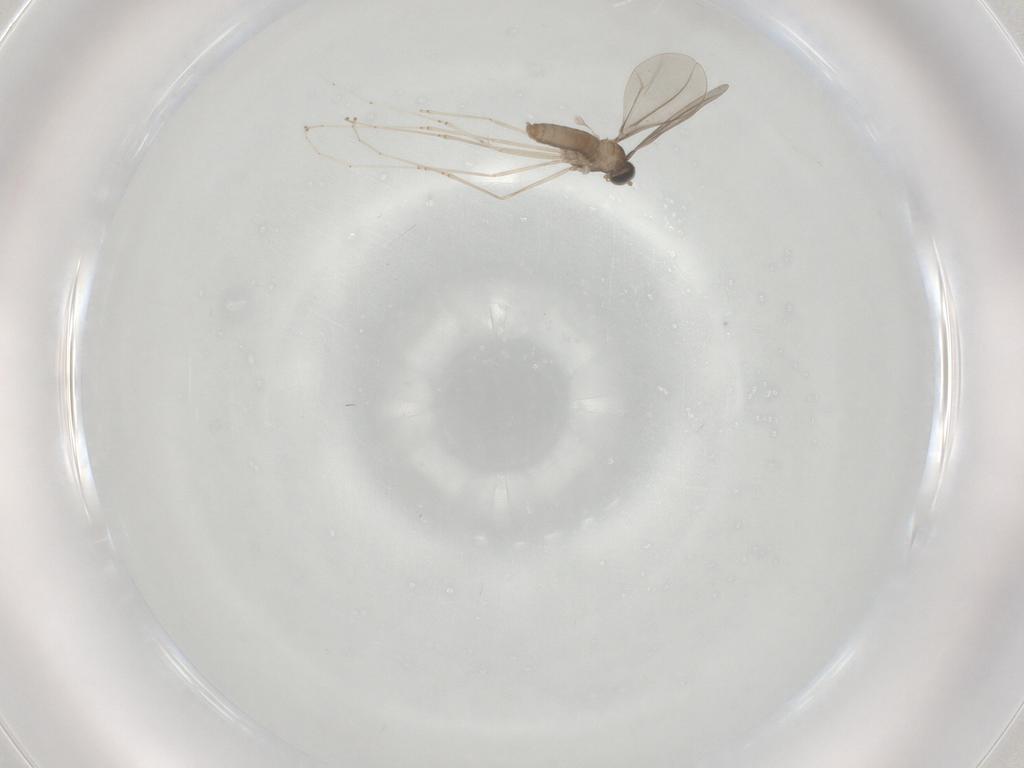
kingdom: Animalia
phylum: Arthropoda
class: Insecta
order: Diptera
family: Cecidomyiidae
